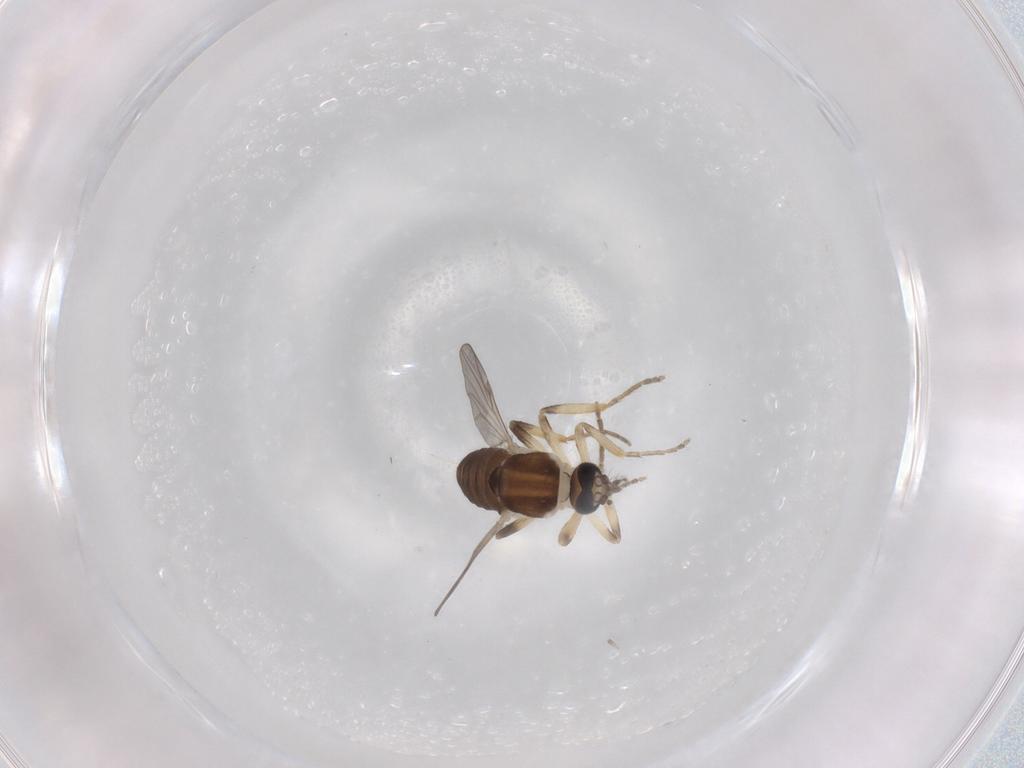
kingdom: Animalia
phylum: Arthropoda
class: Insecta
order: Diptera
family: Ceratopogonidae
